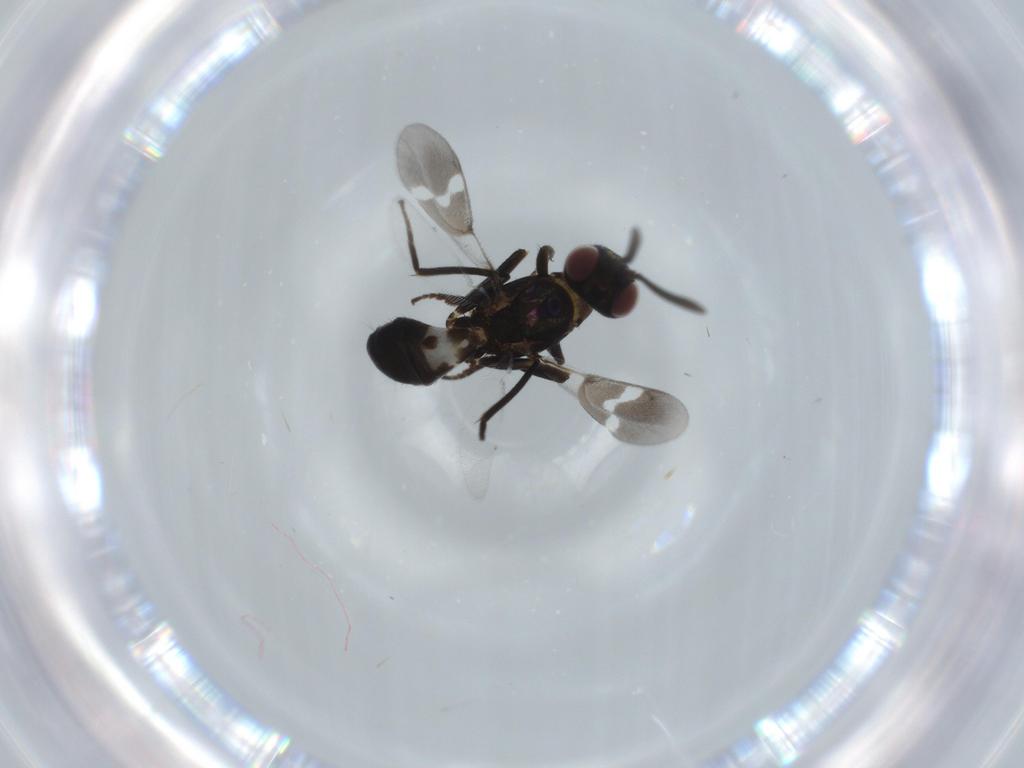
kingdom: Animalia
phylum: Arthropoda
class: Insecta
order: Hymenoptera
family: Eupelmidae
